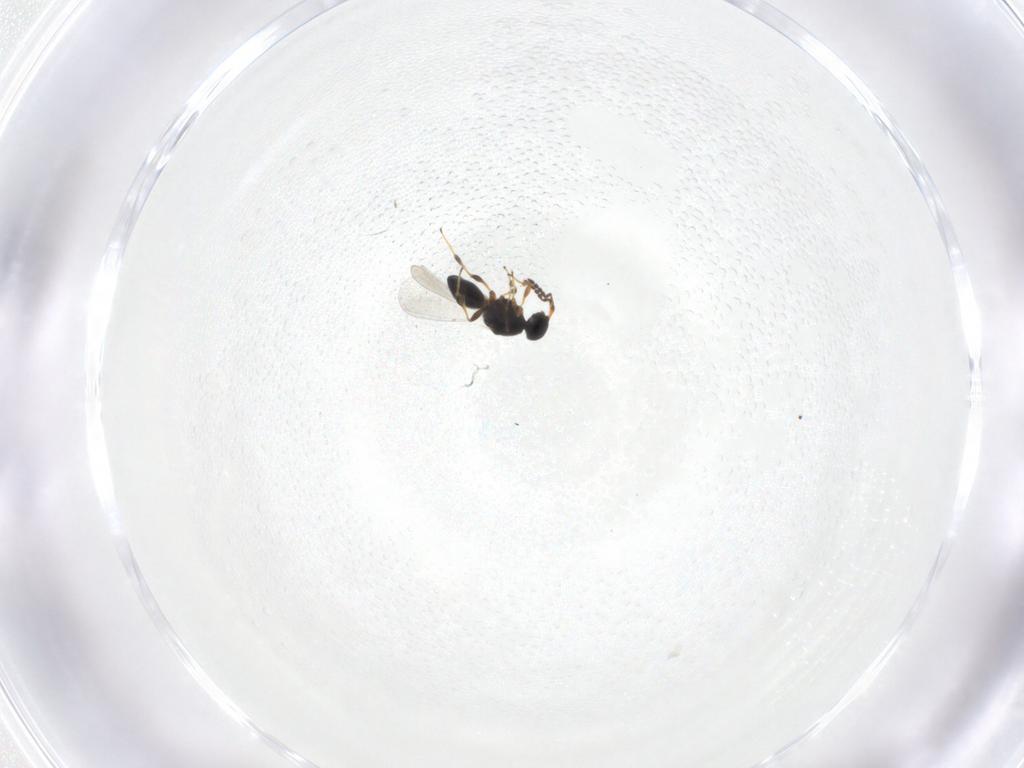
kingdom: Animalia
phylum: Arthropoda
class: Insecta
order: Hymenoptera
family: Platygastridae
